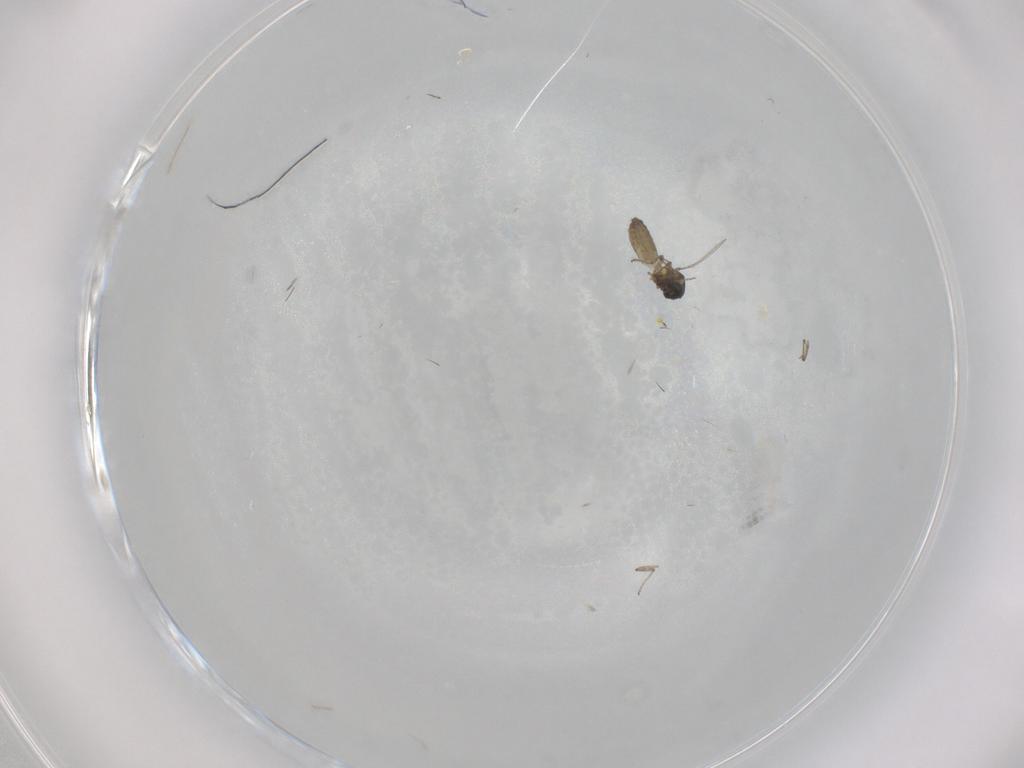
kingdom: Animalia
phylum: Arthropoda
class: Insecta
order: Diptera
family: Ceratopogonidae
